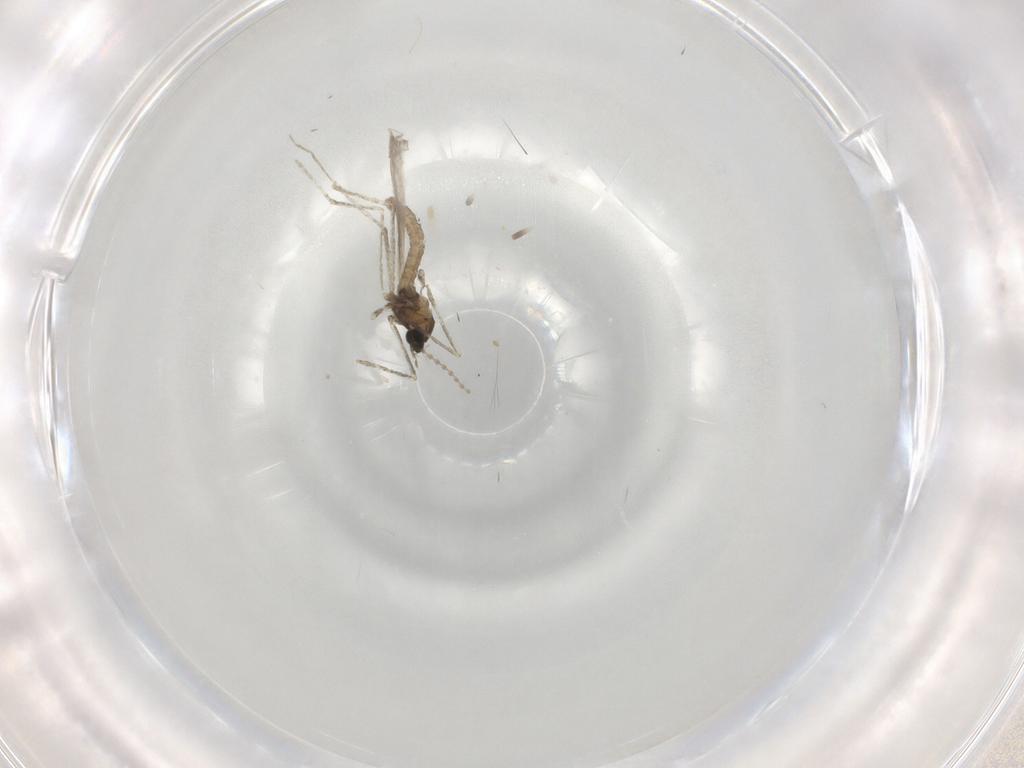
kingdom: Animalia
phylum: Arthropoda
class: Insecta
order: Diptera
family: Cecidomyiidae
